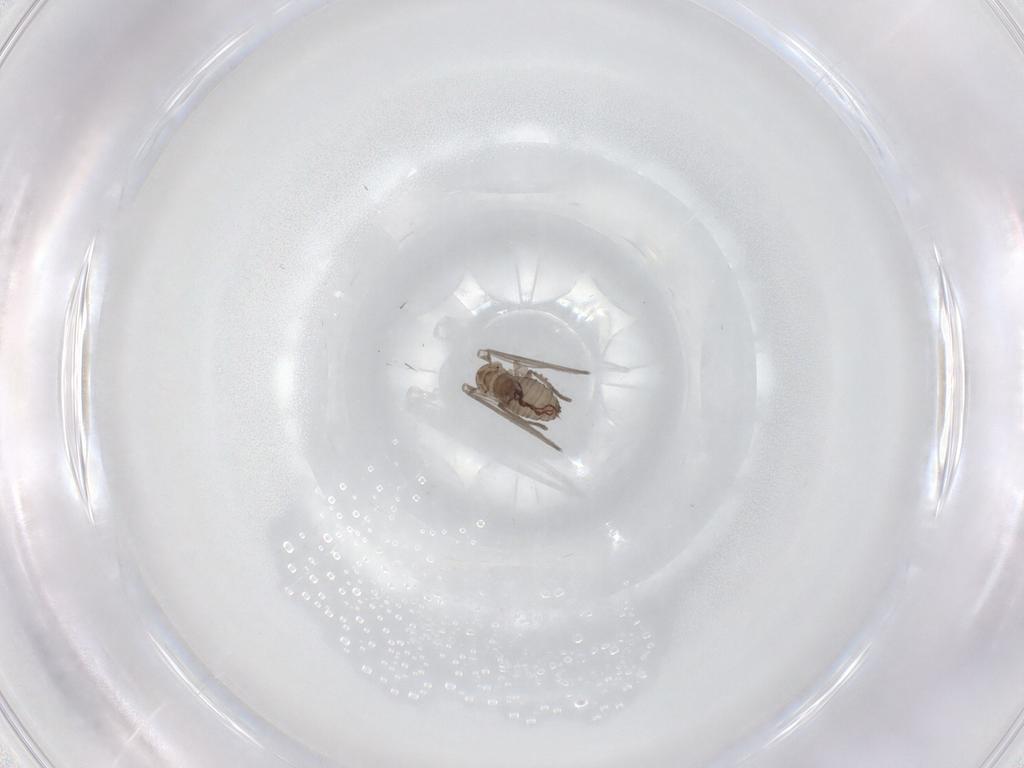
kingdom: Animalia
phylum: Arthropoda
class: Insecta
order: Diptera
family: Psychodidae
